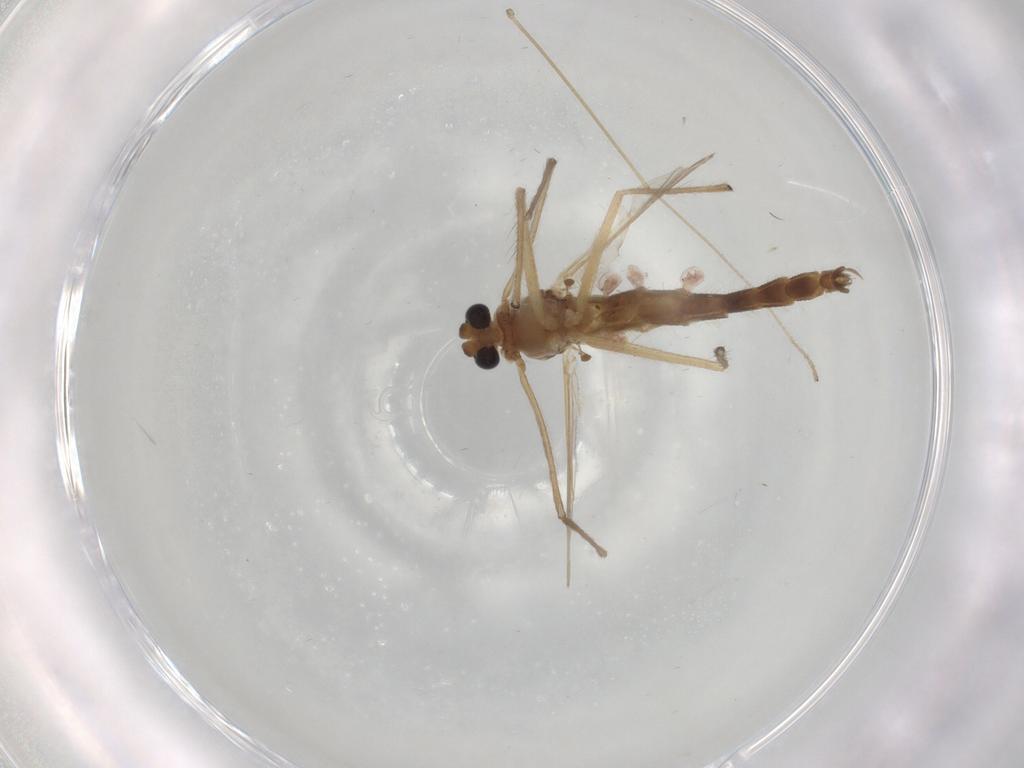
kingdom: Animalia
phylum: Arthropoda
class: Insecta
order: Diptera
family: Chironomidae
